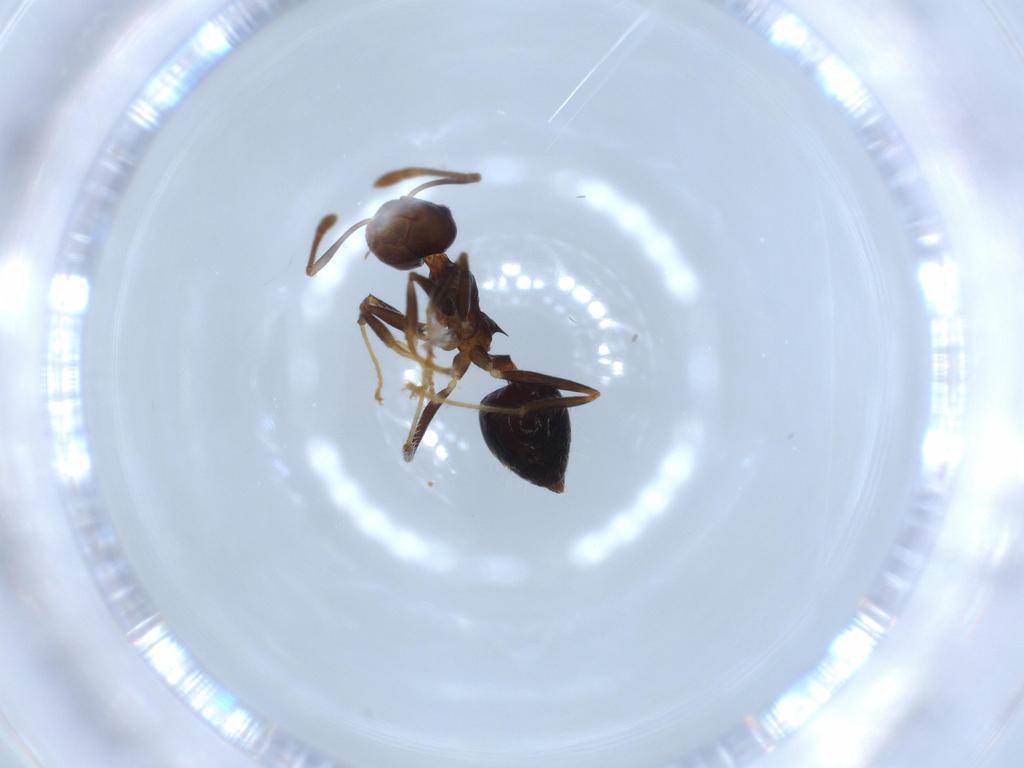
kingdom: Animalia
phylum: Arthropoda
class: Insecta
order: Hymenoptera
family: Formicidae
